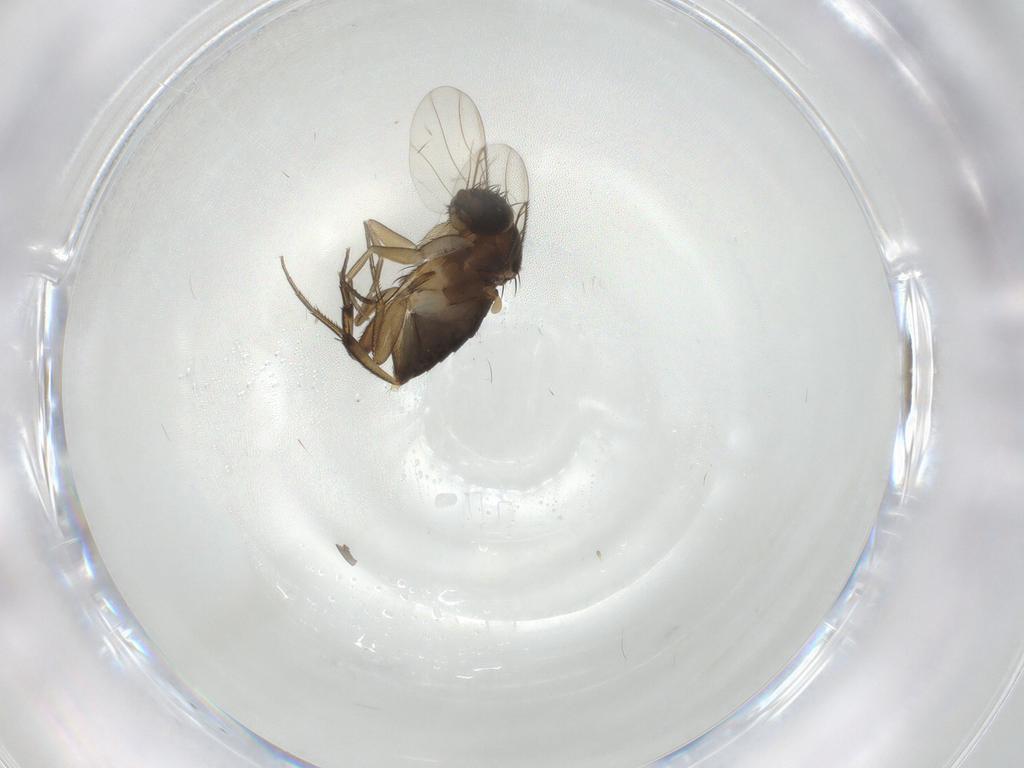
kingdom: Animalia
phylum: Arthropoda
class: Insecta
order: Diptera
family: Phoridae
